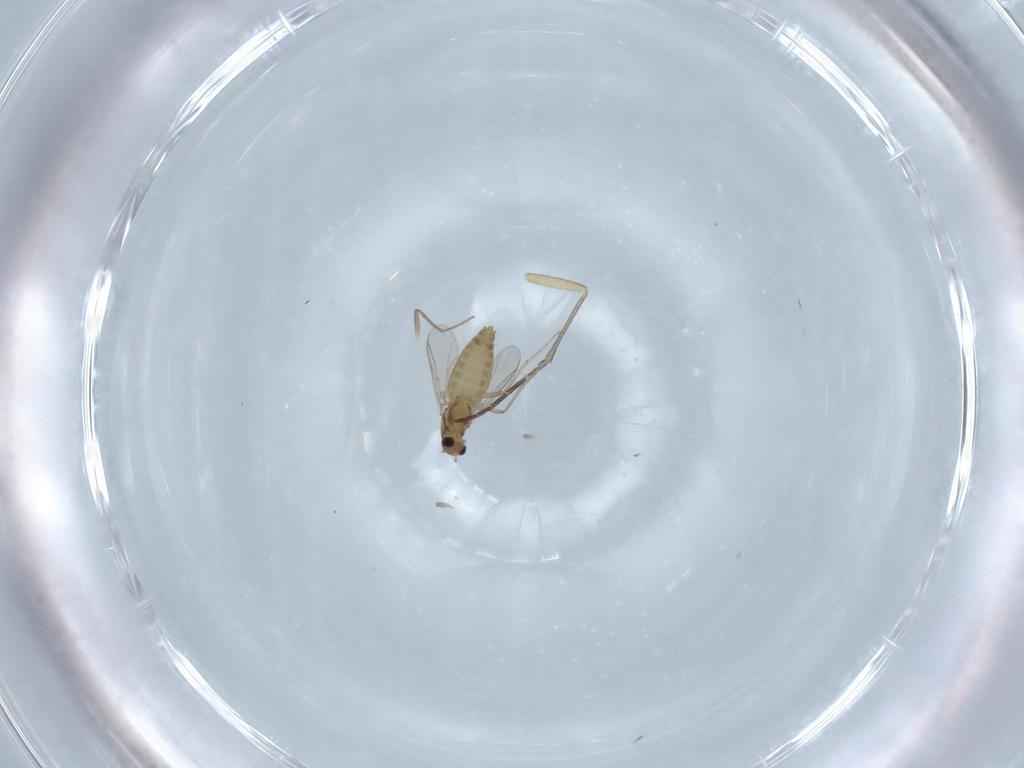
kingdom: Animalia
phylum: Arthropoda
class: Insecta
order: Diptera
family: Chironomidae
